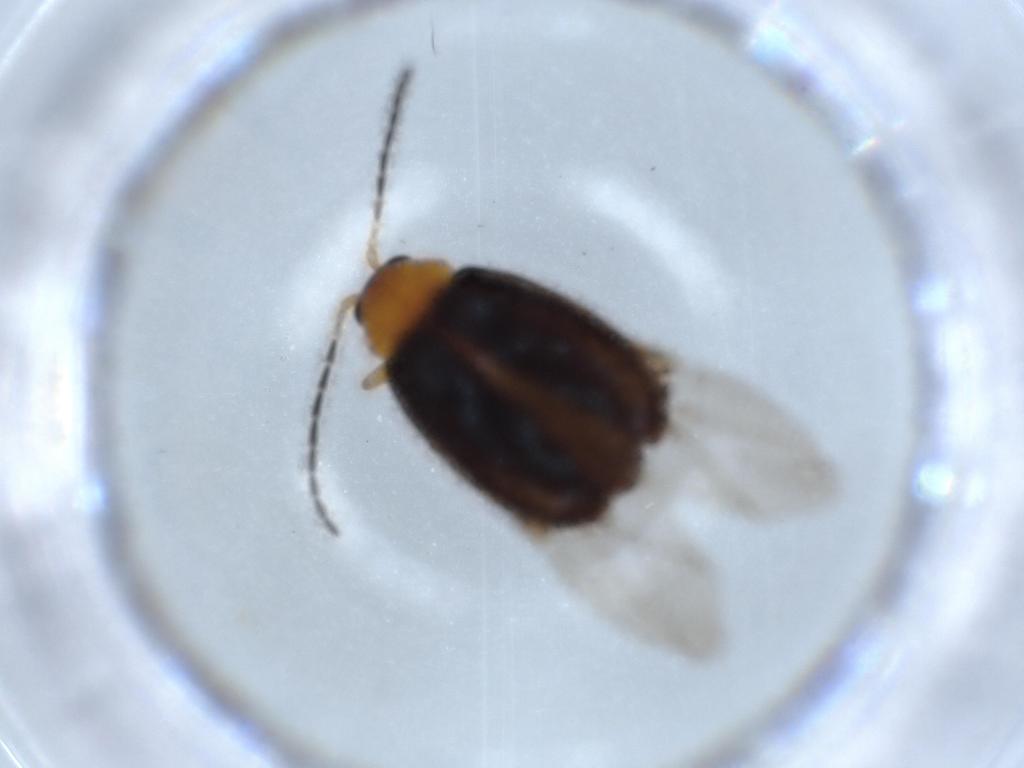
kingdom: Animalia
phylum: Arthropoda
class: Insecta
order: Coleoptera
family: Chrysomelidae
